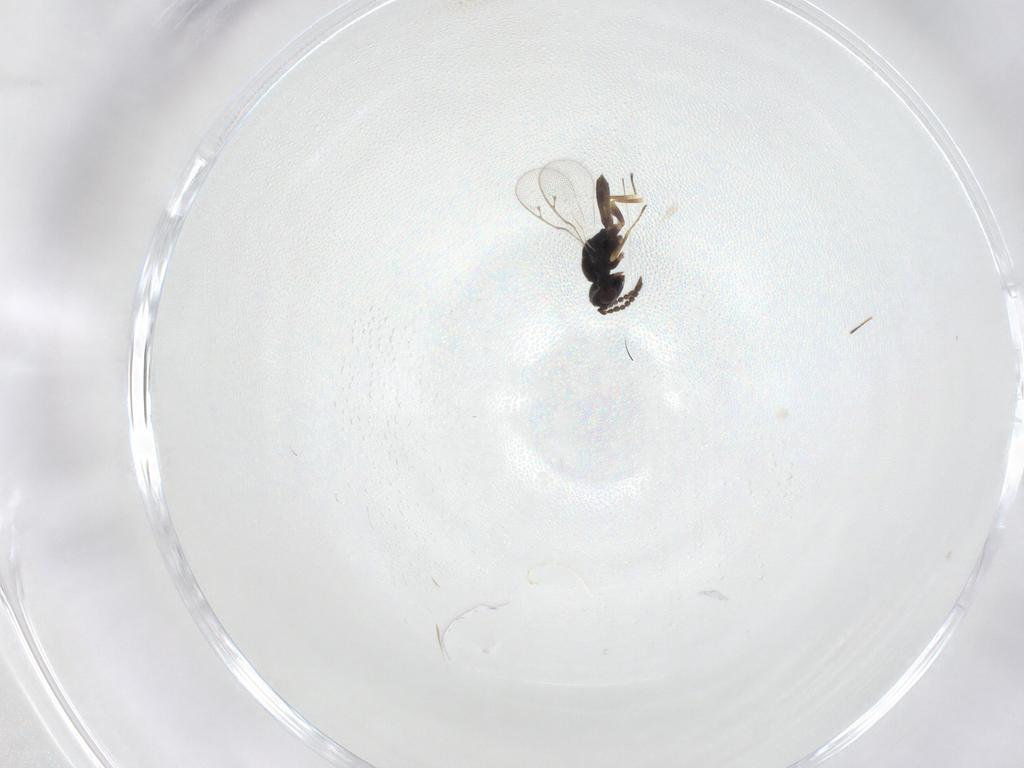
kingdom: Animalia
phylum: Arthropoda
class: Insecta
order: Hymenoptera
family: Pteromalidae
